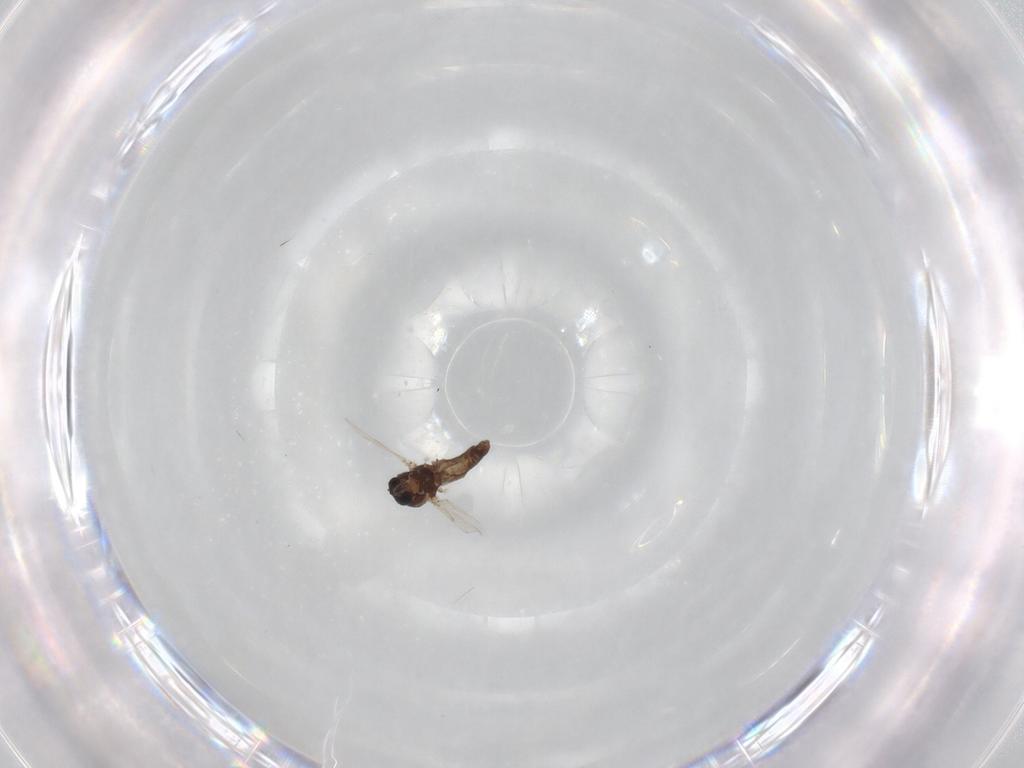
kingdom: Animalia
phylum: Arthropoda
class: Insecta
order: Diptera
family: Ceratopogonidae
